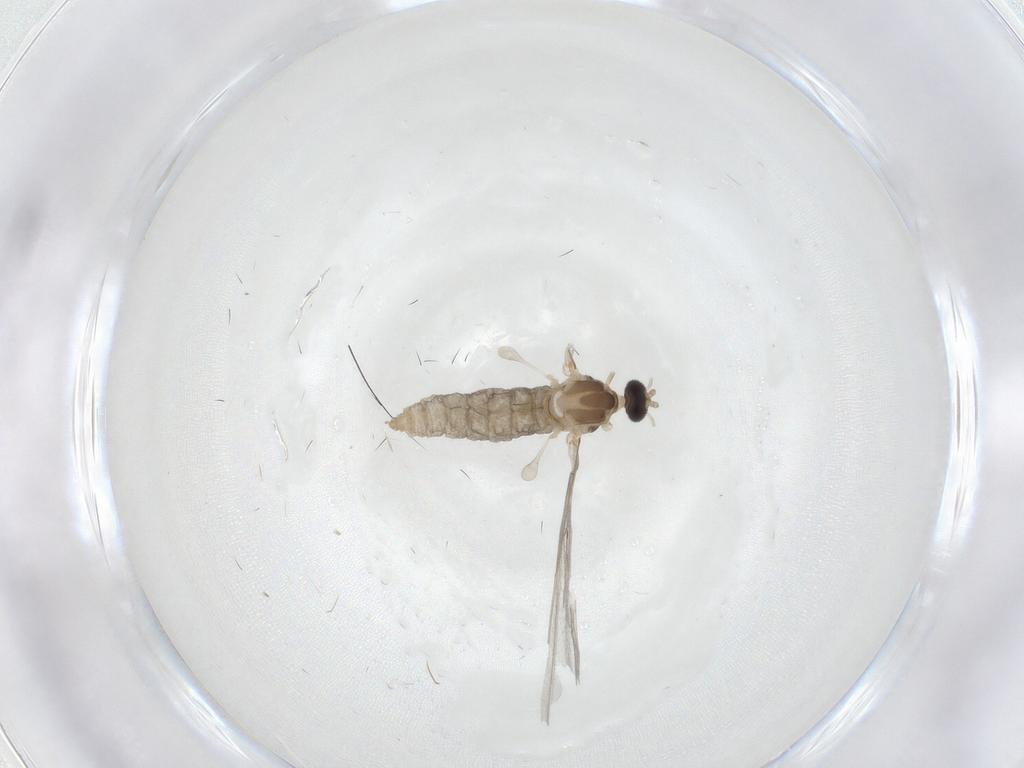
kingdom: Animalia
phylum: Arthropoda
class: Insecta
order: Diptera
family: Cecidomyiidae
